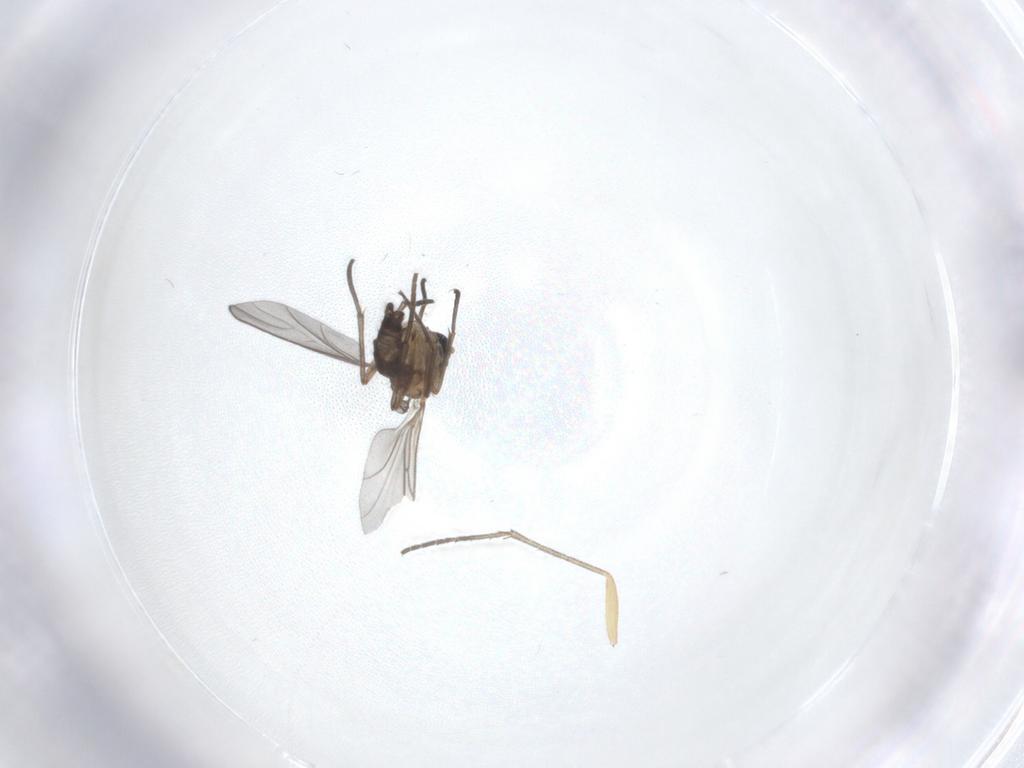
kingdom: Animalia
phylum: Arthropoda
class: Insecta
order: Diptera
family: Sciaridae
